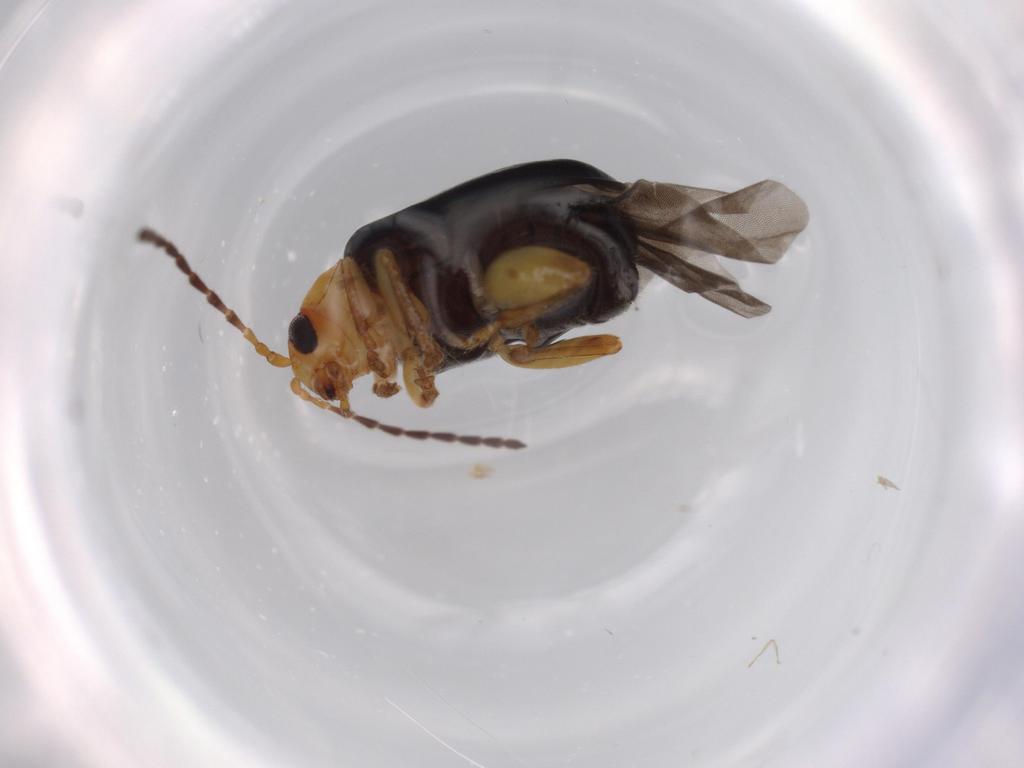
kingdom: Animalia
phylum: Arthropoda
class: Insecta
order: Coleoptera
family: Chrysomelidae
